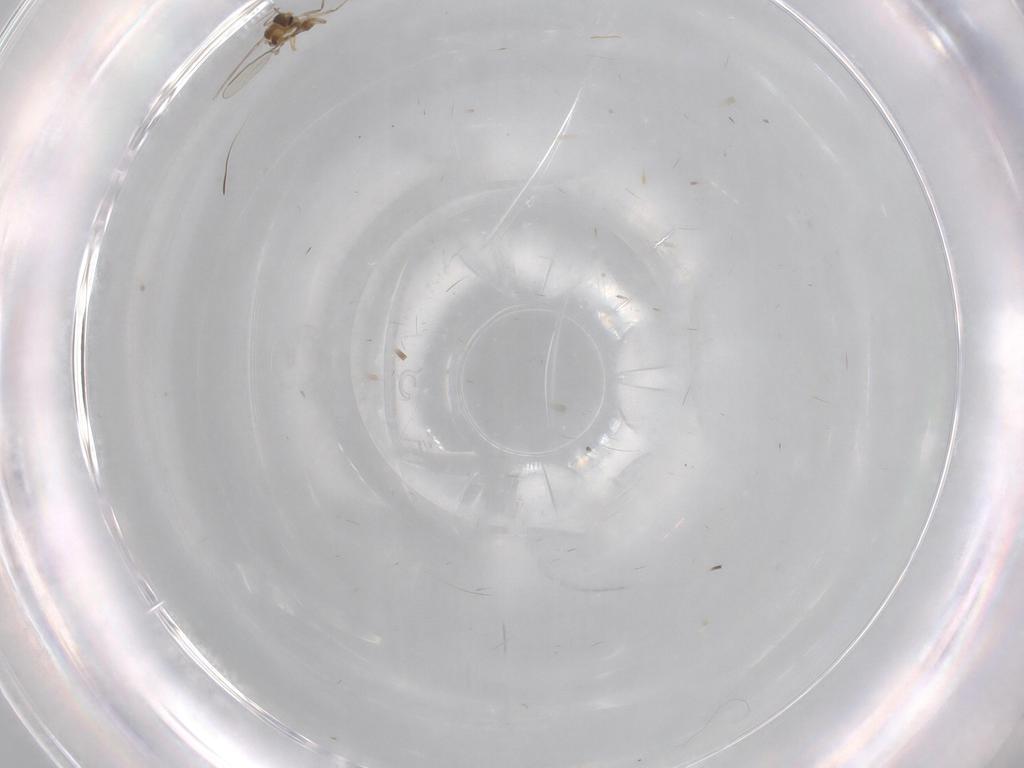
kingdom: Animalia
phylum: Arthropoda
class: Insecta
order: Diptera
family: Chironomidae
